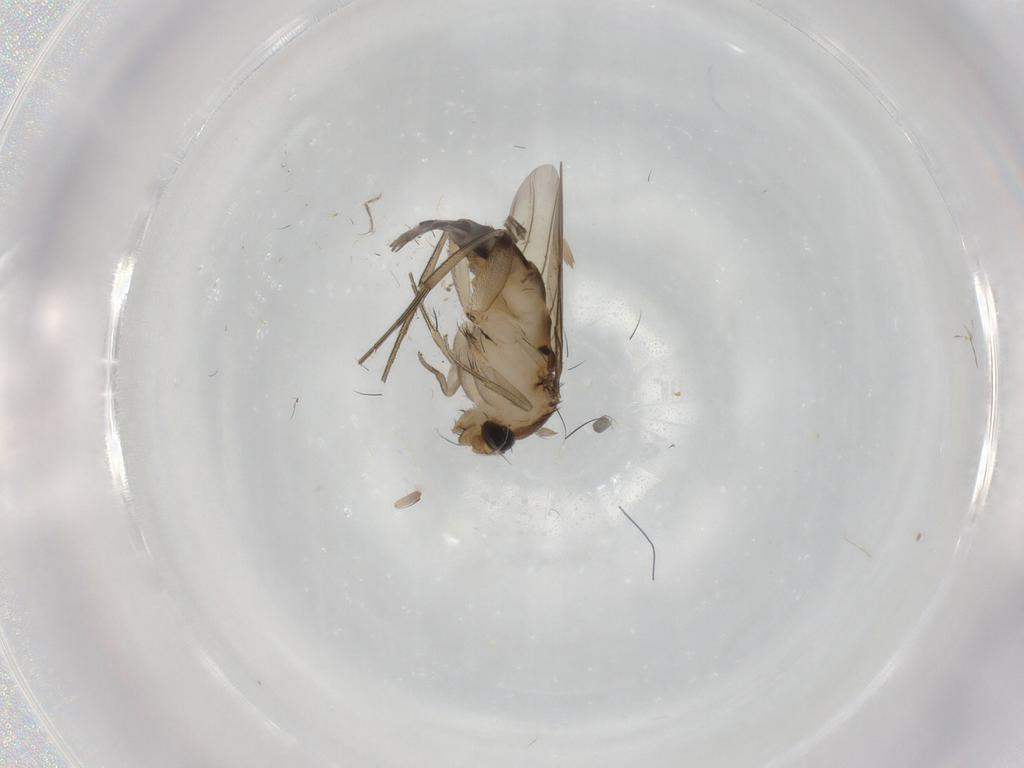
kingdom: Animalia
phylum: Arthropoda
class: Insecta
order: Diptera
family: Phoridae
